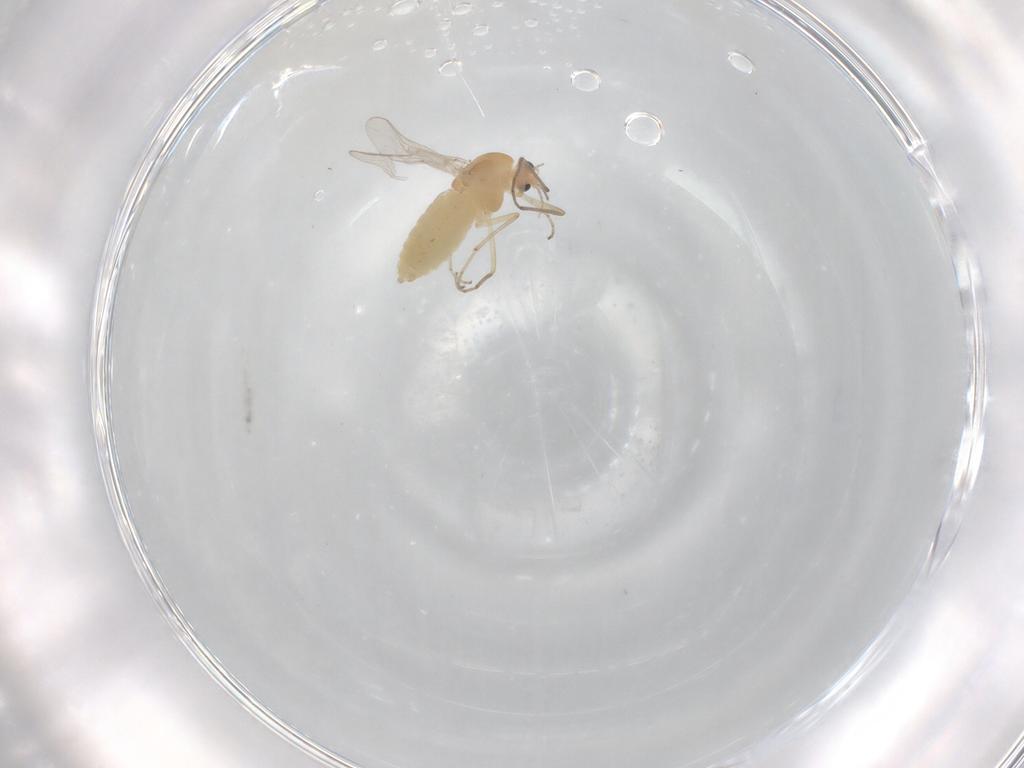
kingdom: Animalia
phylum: Arthropoda
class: Insecta
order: Diptera
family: Chironomidae
